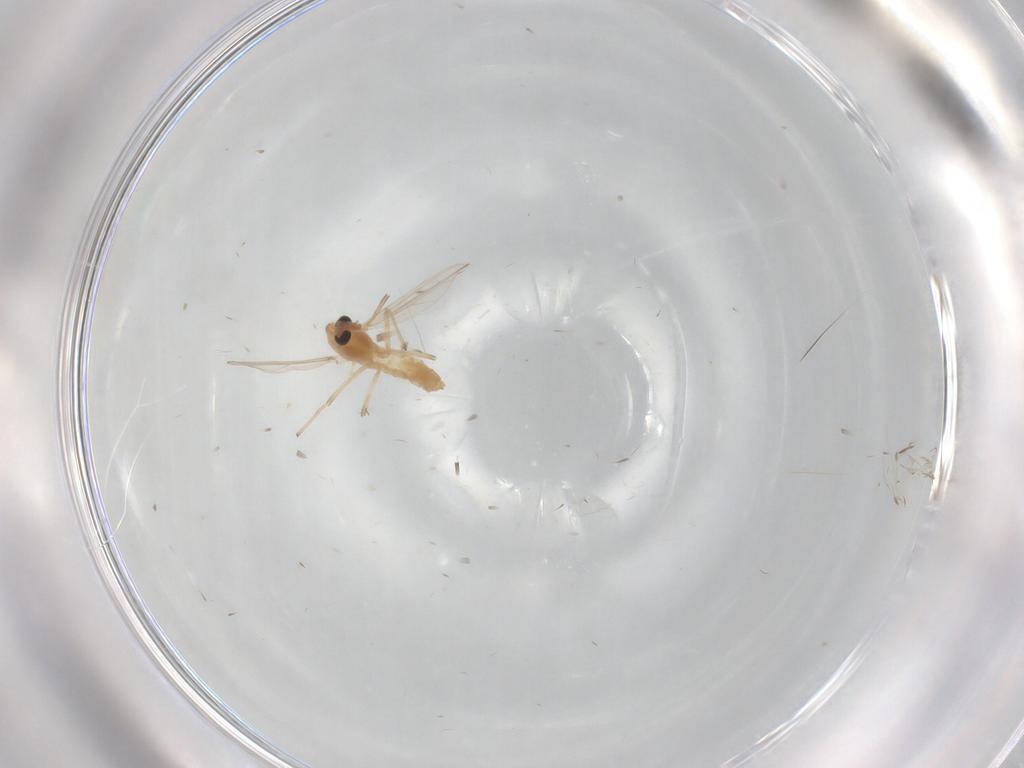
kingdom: Animalia
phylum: Arthropoda
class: Insecta
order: Diptera
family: Chironomidae
